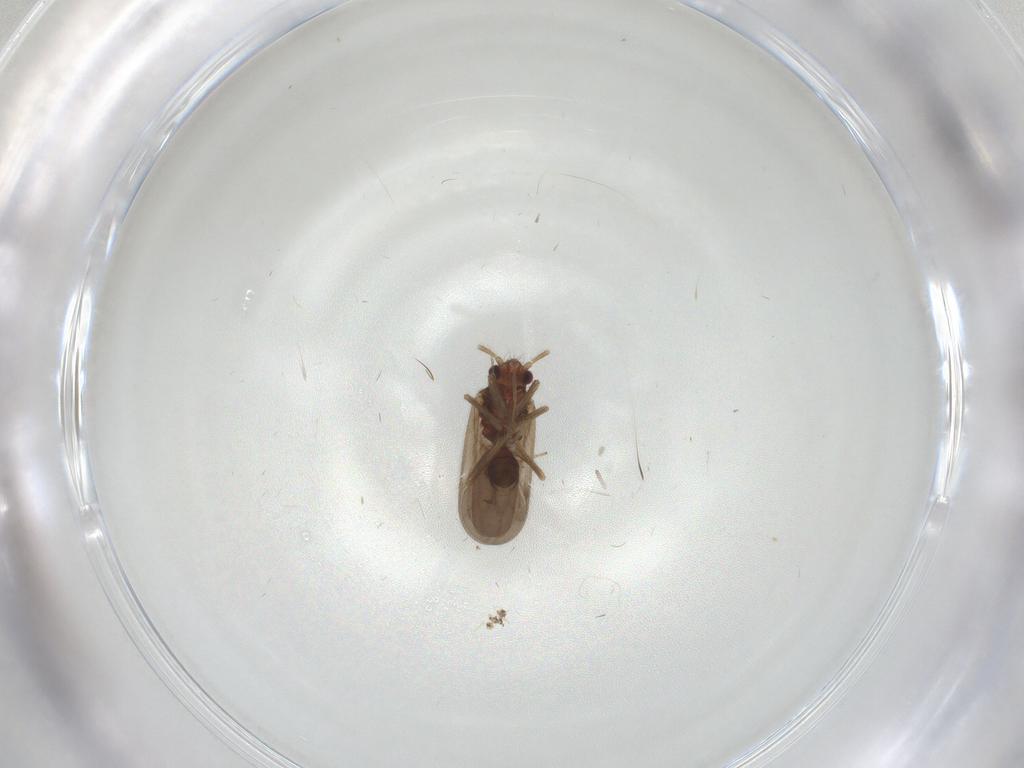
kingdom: Animalia
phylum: Arthropoda
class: Insecta
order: Hemiptera
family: Ceratocombidae
